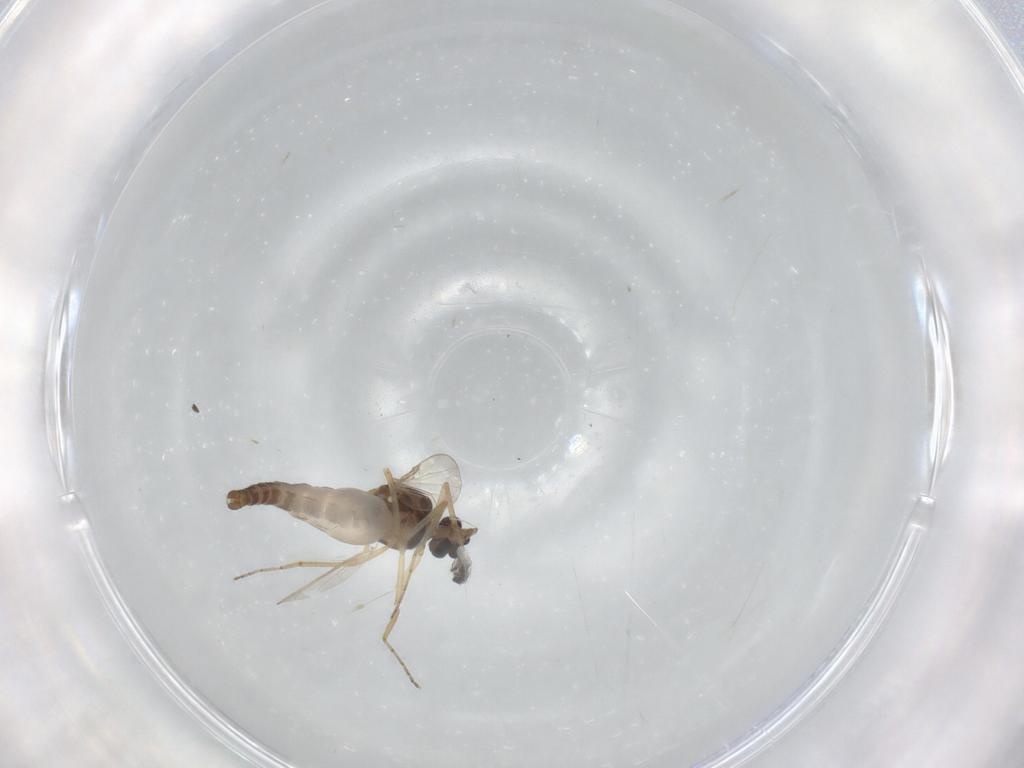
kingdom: Animalia
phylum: Arthropoda
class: Insecta
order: Diptera
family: Ceratopogonidae
